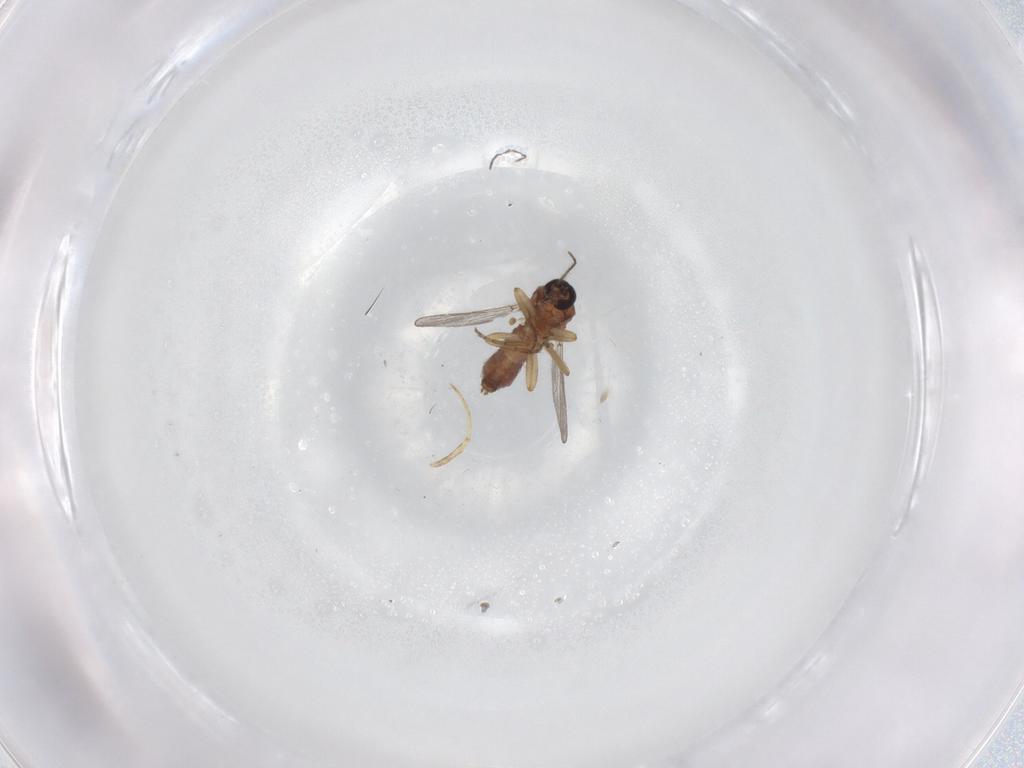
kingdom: Animalia
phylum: Arthropoda
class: Insecta
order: Diptera
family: Ceratopogonidae
